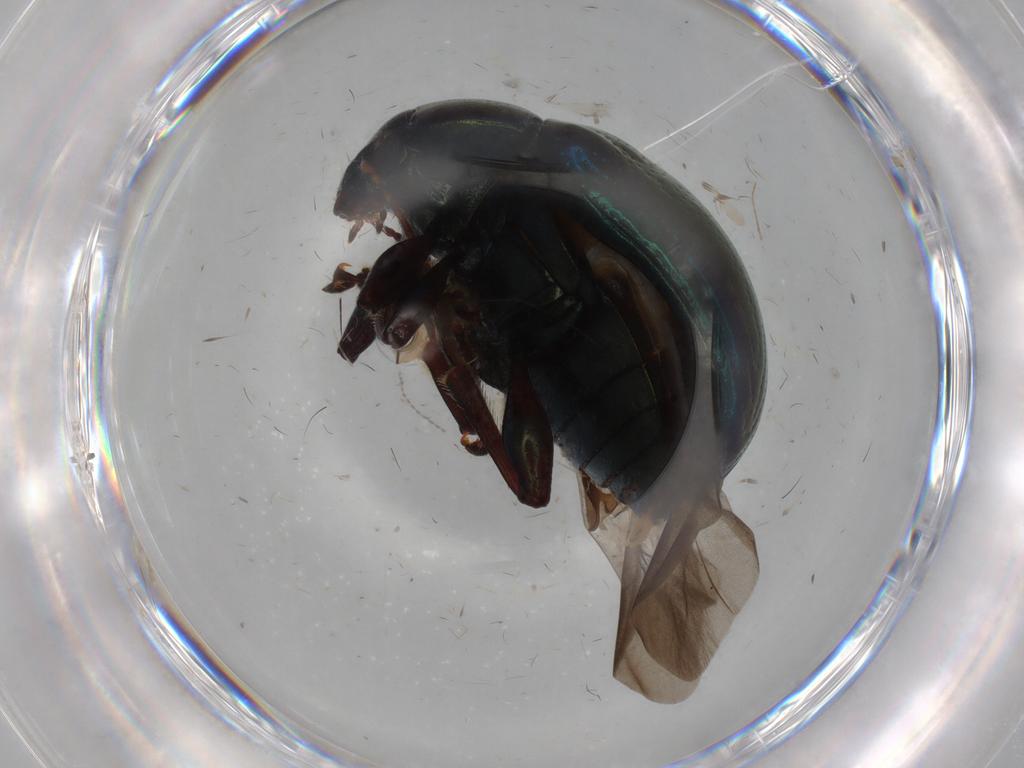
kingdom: Animalia
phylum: Arthropoda
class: Insecta
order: Coleoptera
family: Chrysomelidae
